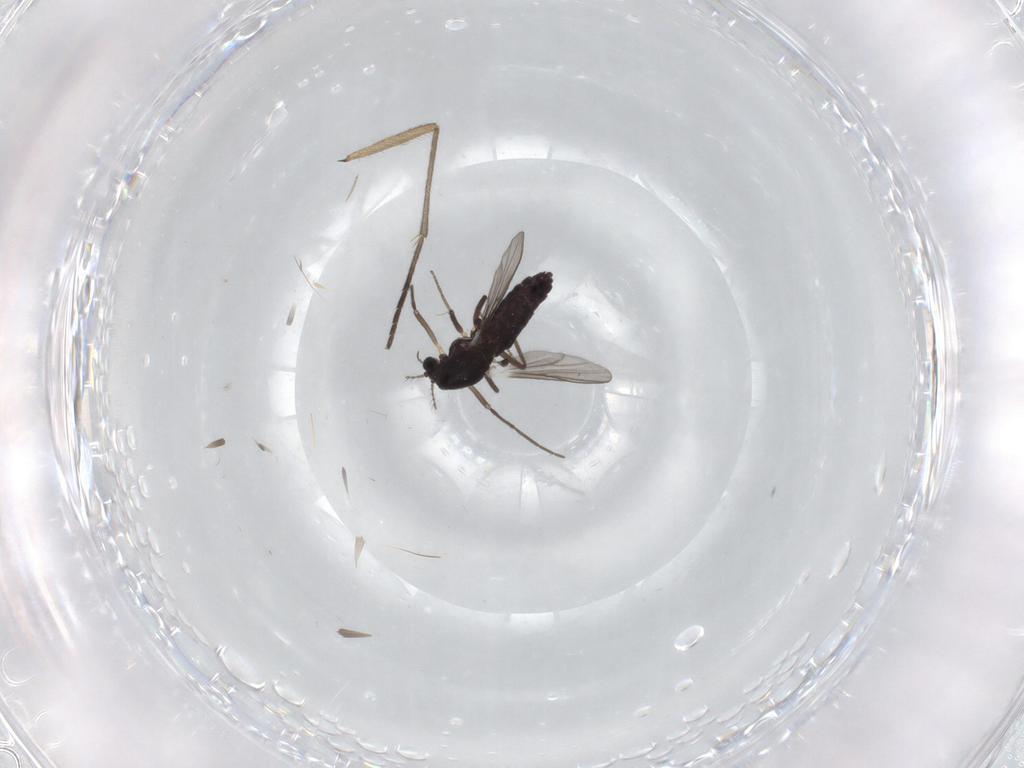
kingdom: Animalia
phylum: Arthropoda
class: Insecta
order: Diptera
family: Chironomidae
